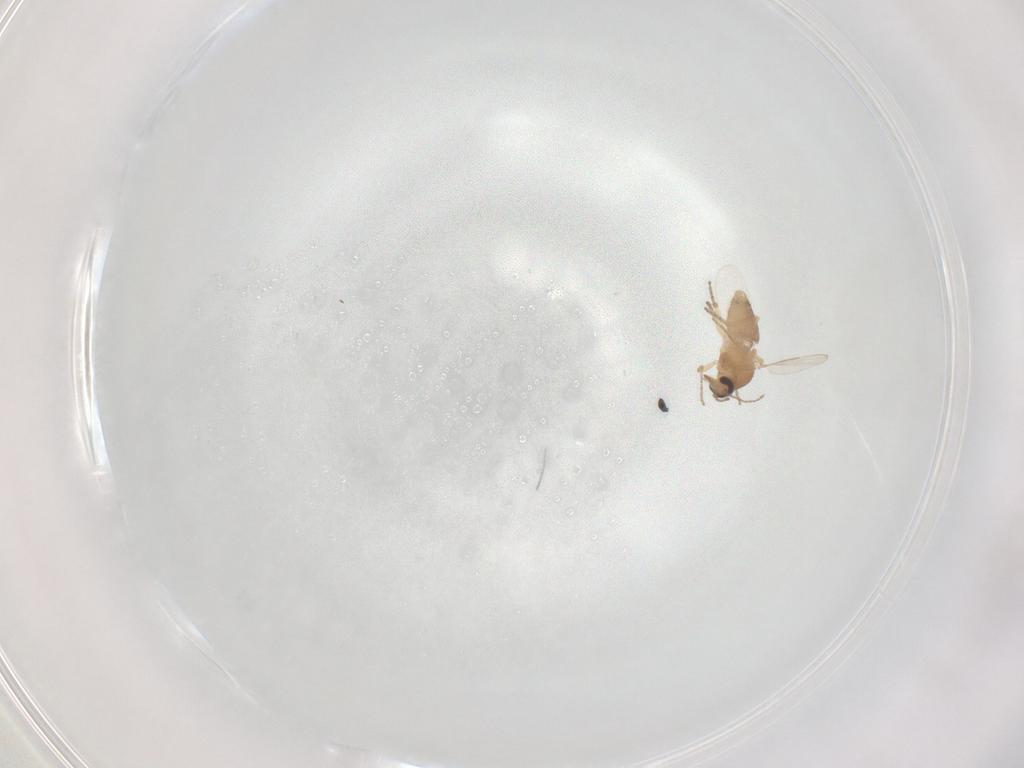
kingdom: Animalia
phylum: Arthropoda
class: Insecta
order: Diptera
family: Ceratopogonidae
